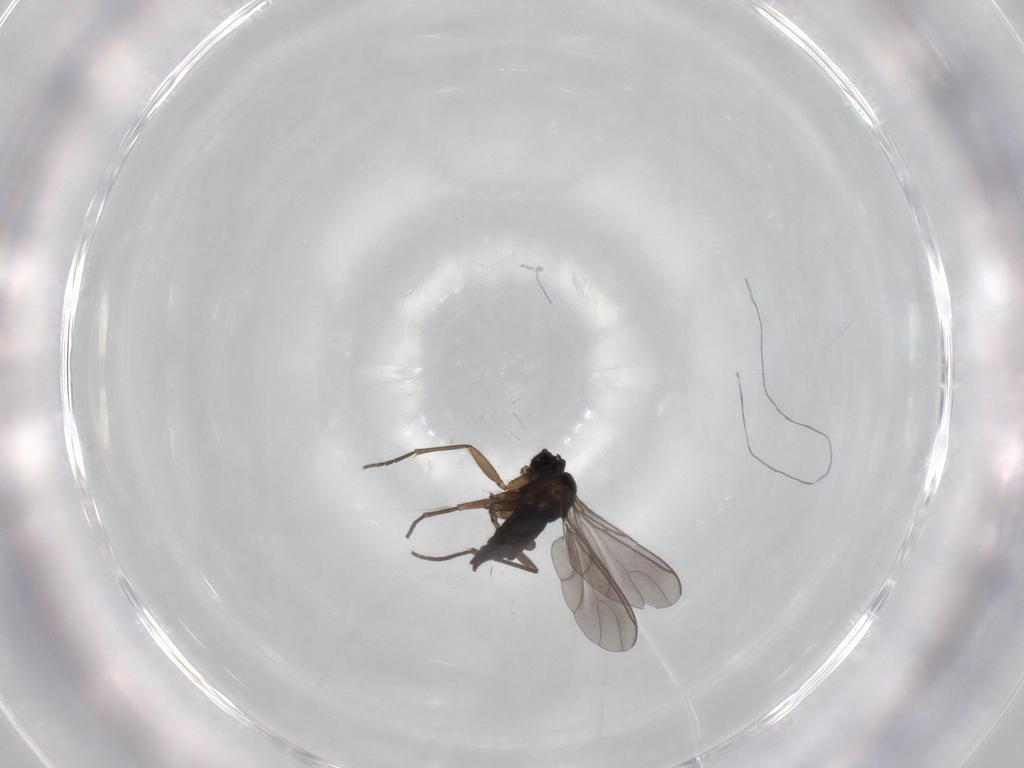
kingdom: Animalia
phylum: Arthropoda
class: Insecta
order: Diptera
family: Sciaridae
